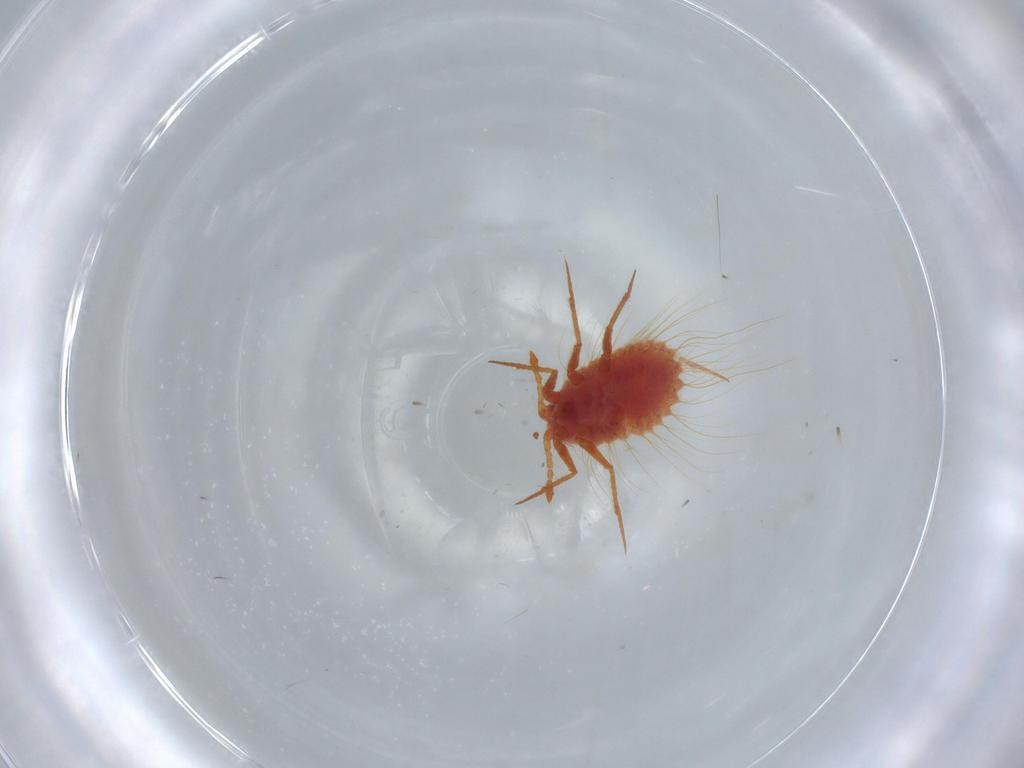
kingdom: Animalia
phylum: Arthropoda
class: Insecta
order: Hemiptera
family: Monophlebidae
